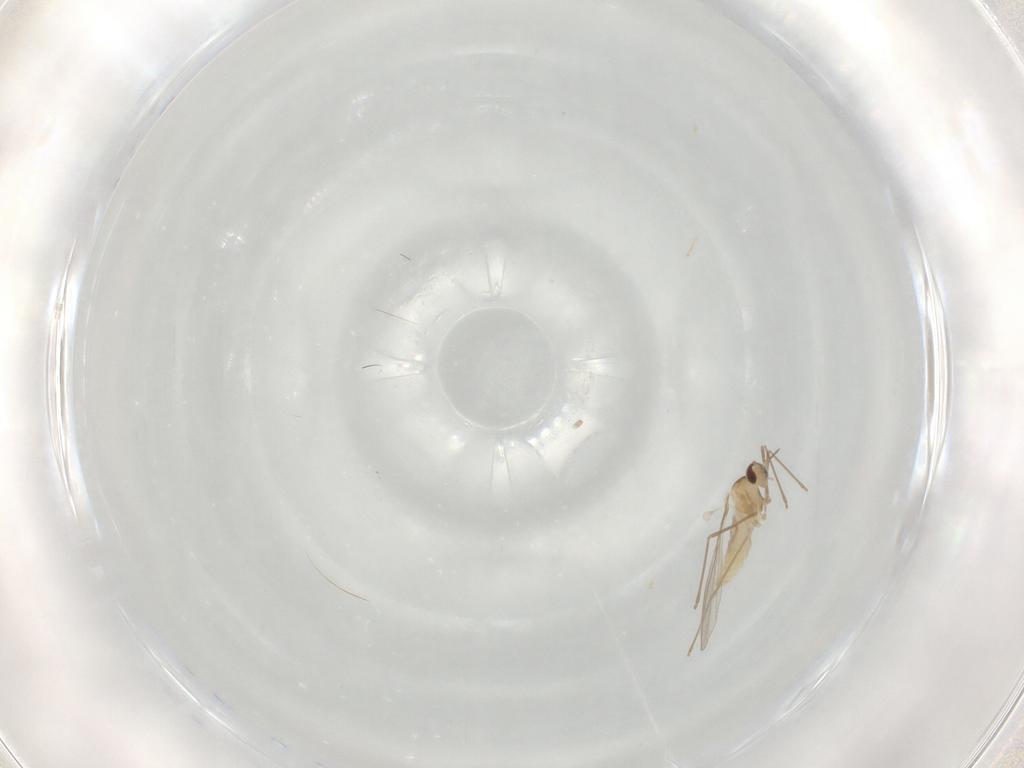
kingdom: Animalia
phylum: Arthropoda
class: Insecta
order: Diptera
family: Cecidomyiidae
